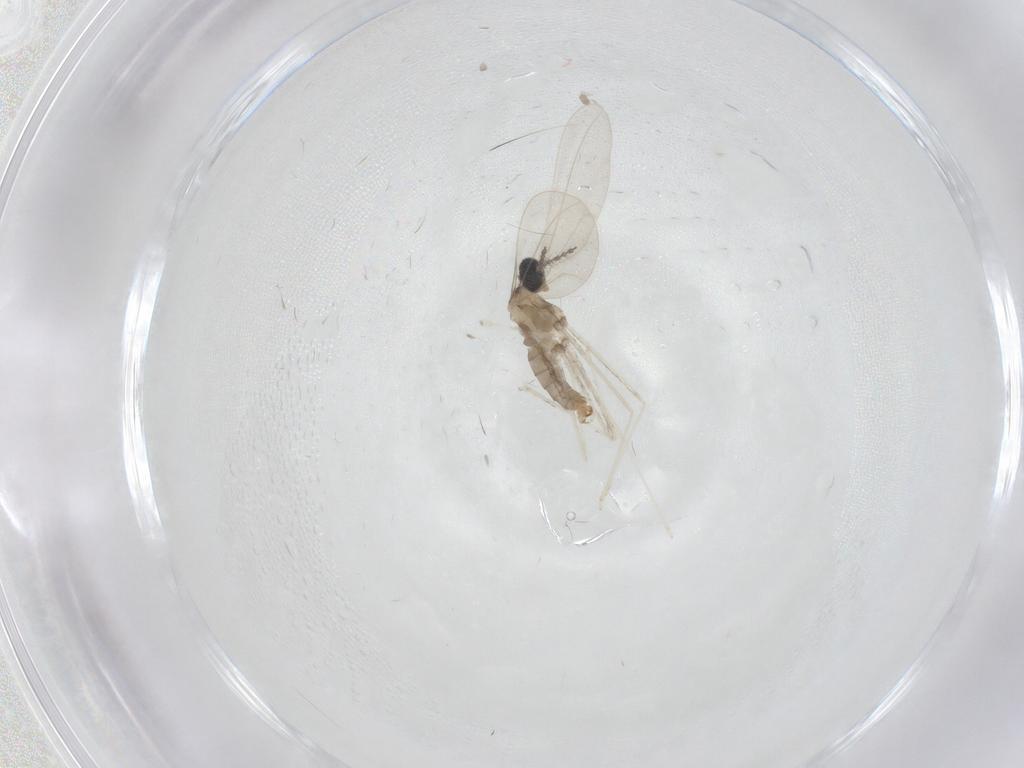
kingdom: Animalia
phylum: Arthropoda
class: Insecta
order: Diptera
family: Cecidomyiidae
